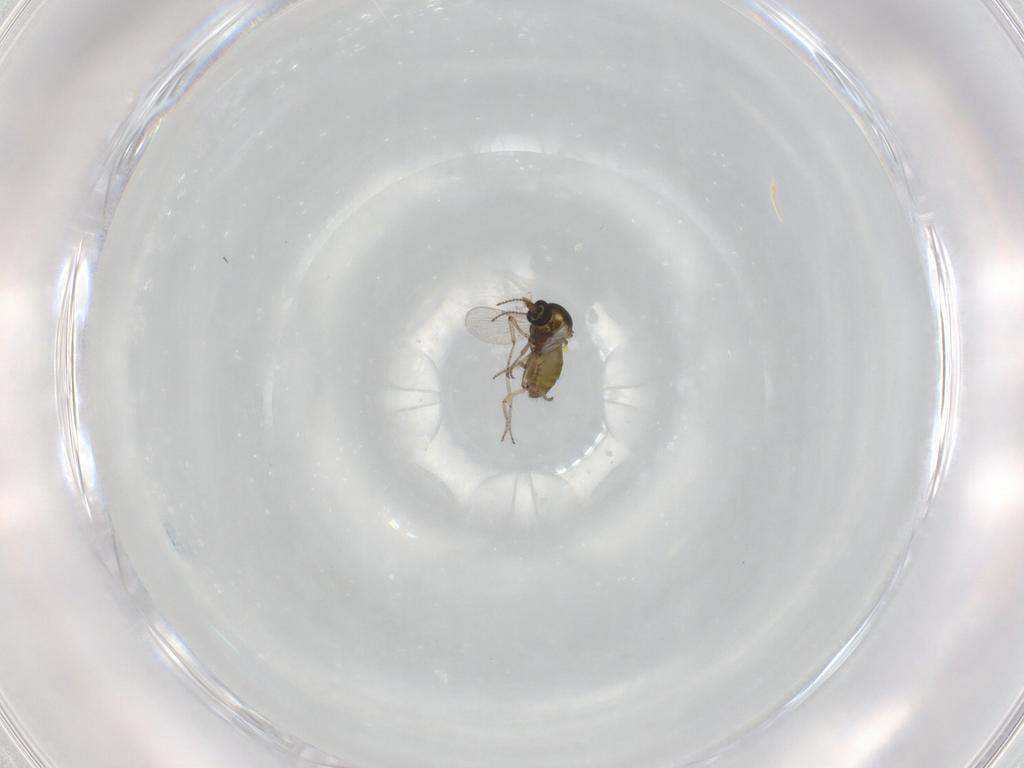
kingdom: Animalia
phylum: Arthropoda
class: Insecta
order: Diptera
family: Ceratopogonidae
